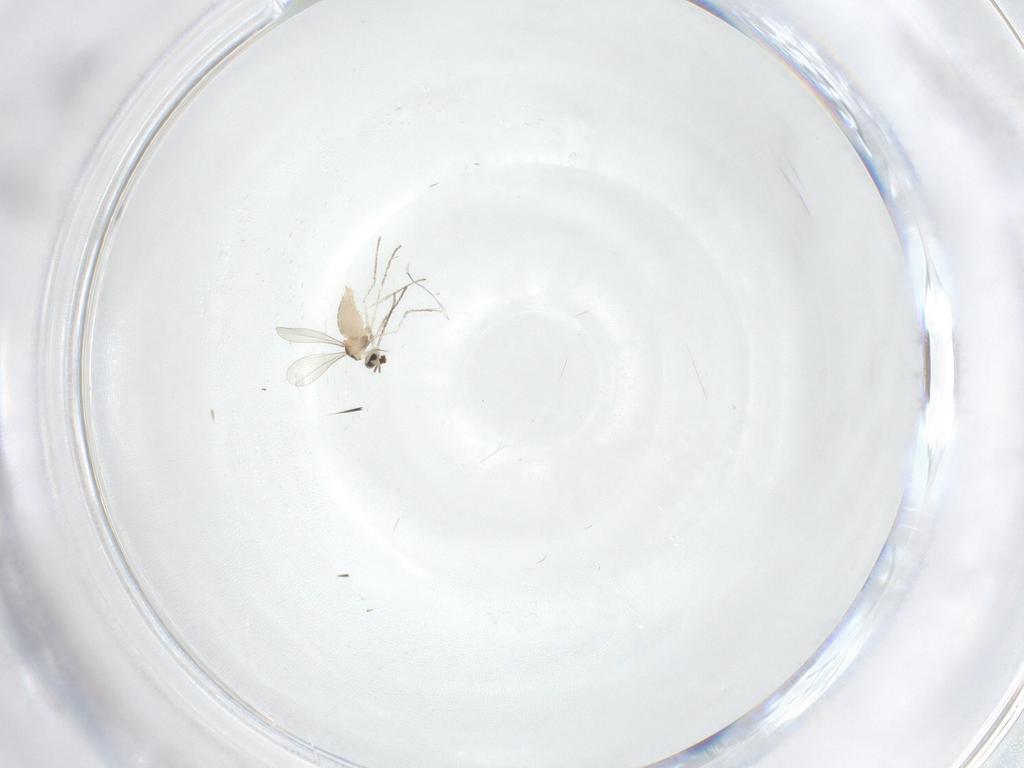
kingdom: Animalia
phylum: Arthropoda
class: Insecta
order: Diptera
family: Cecidomyiidae
